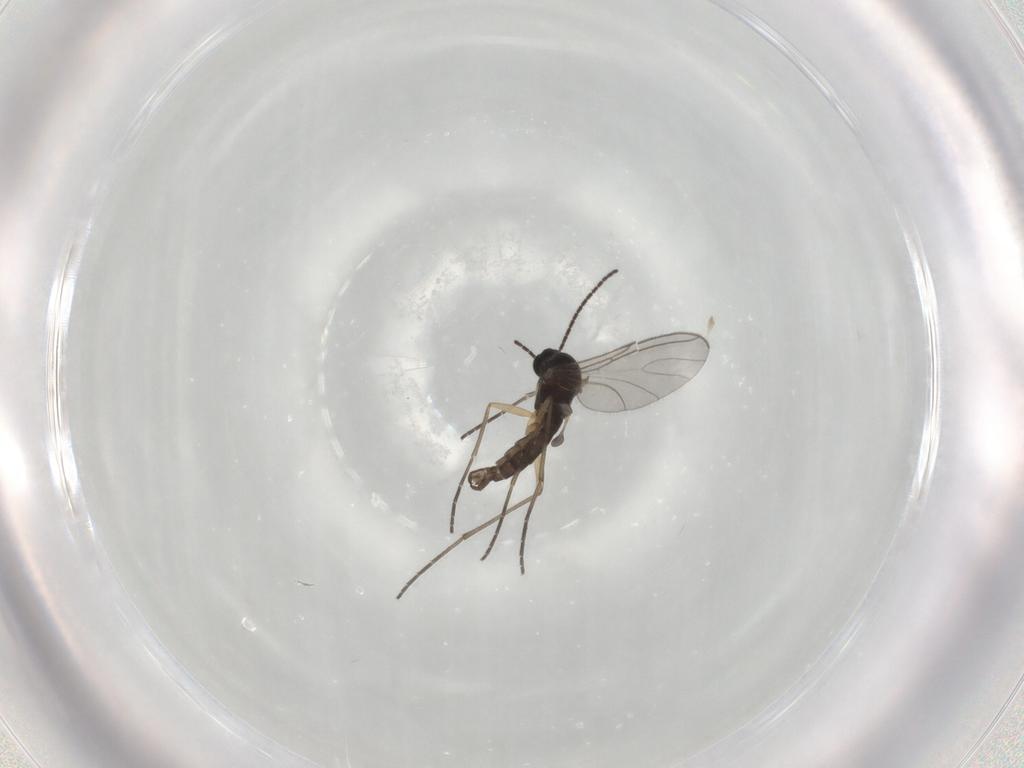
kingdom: Animalia
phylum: Arthropoda
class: Insecta
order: Diptera
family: Sciaridae
